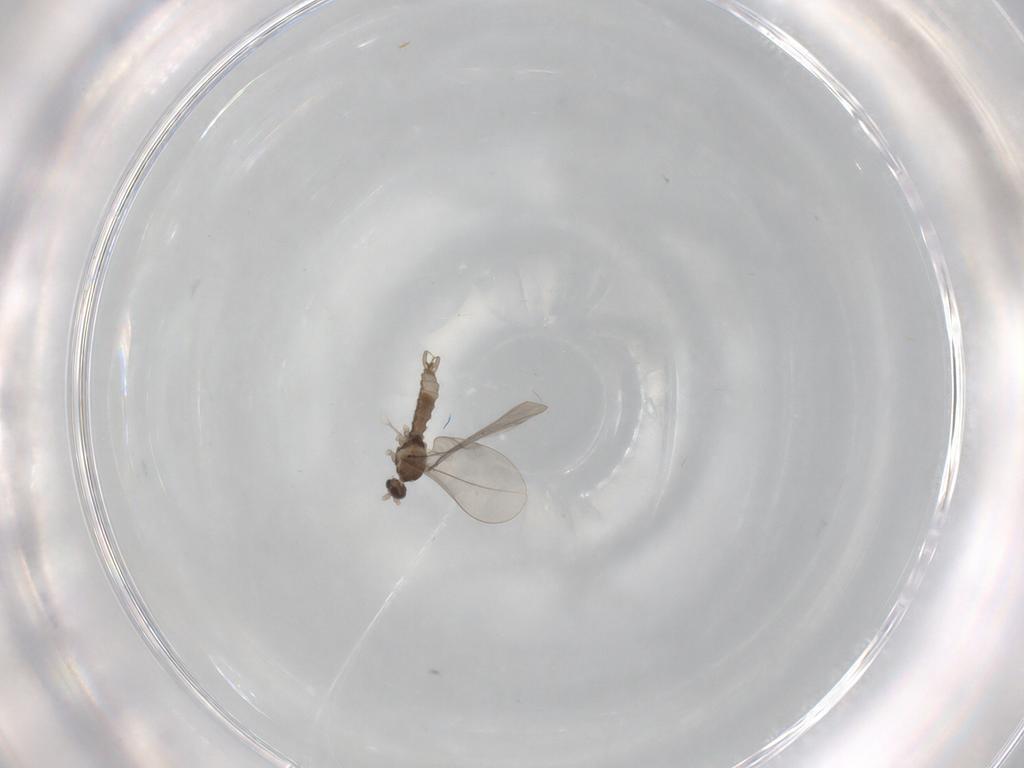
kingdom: Animalia
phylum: Arthropoda
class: Insecta
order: Diptera
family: Cecidomyiidae
